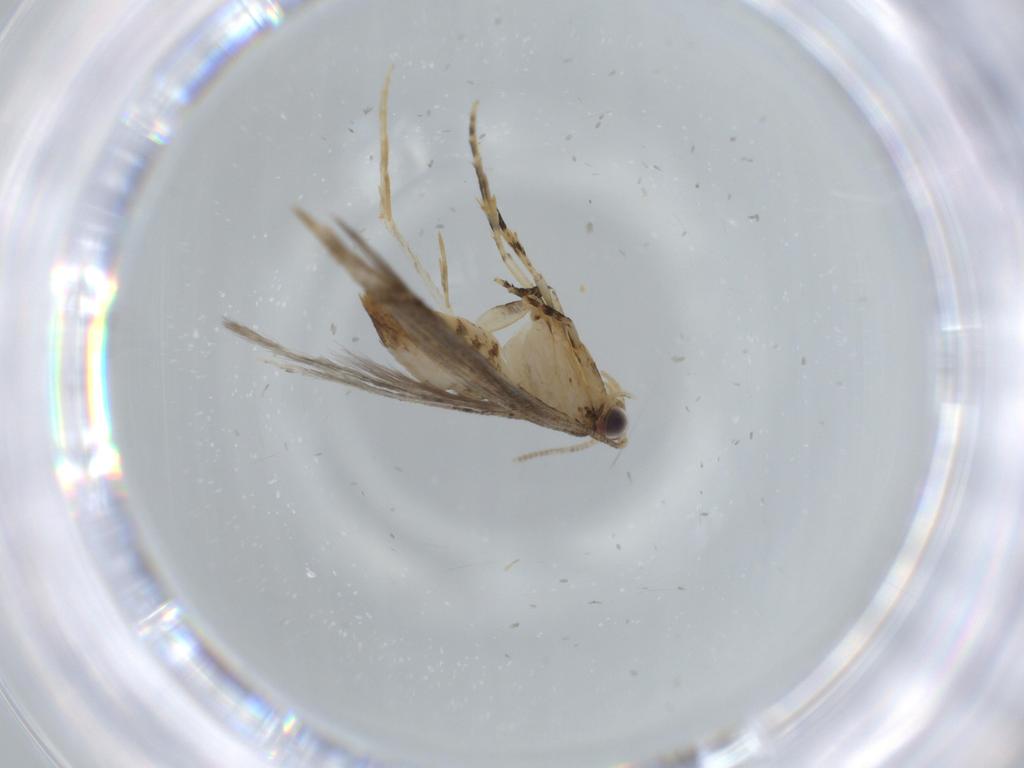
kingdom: Animalia
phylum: Arthropoda
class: Insecta
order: Lepidoptera
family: Tineidae
